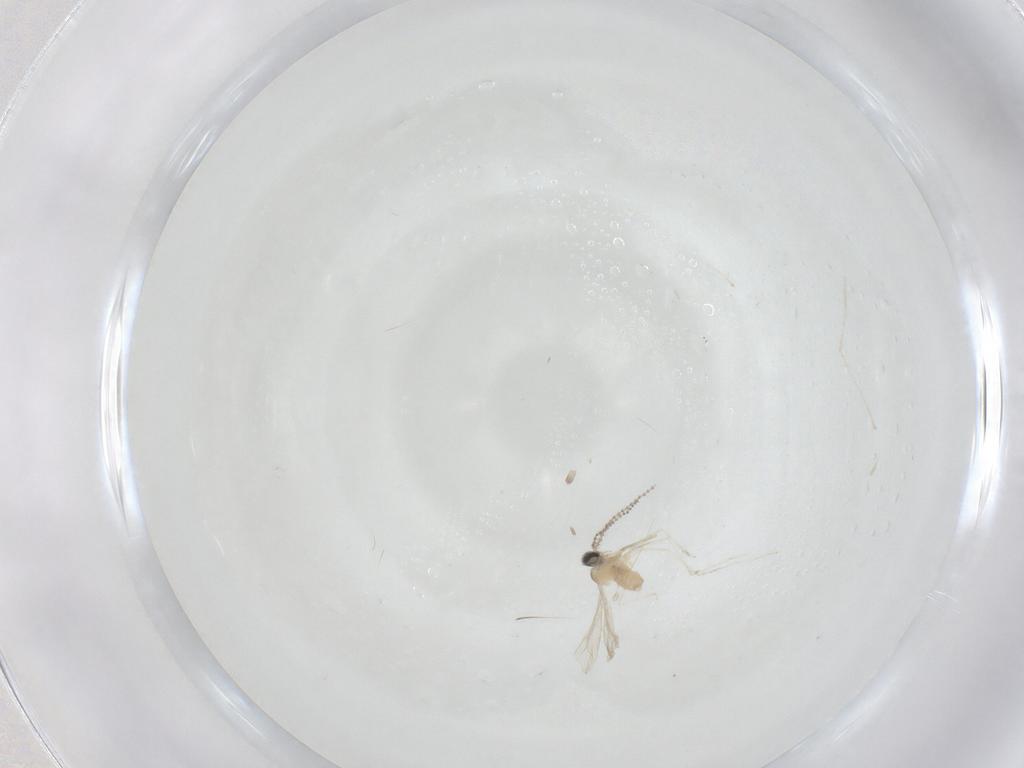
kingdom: Animalia
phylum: Arthropoda
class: Insecta
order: Diptera
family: Cecidomyiidae
